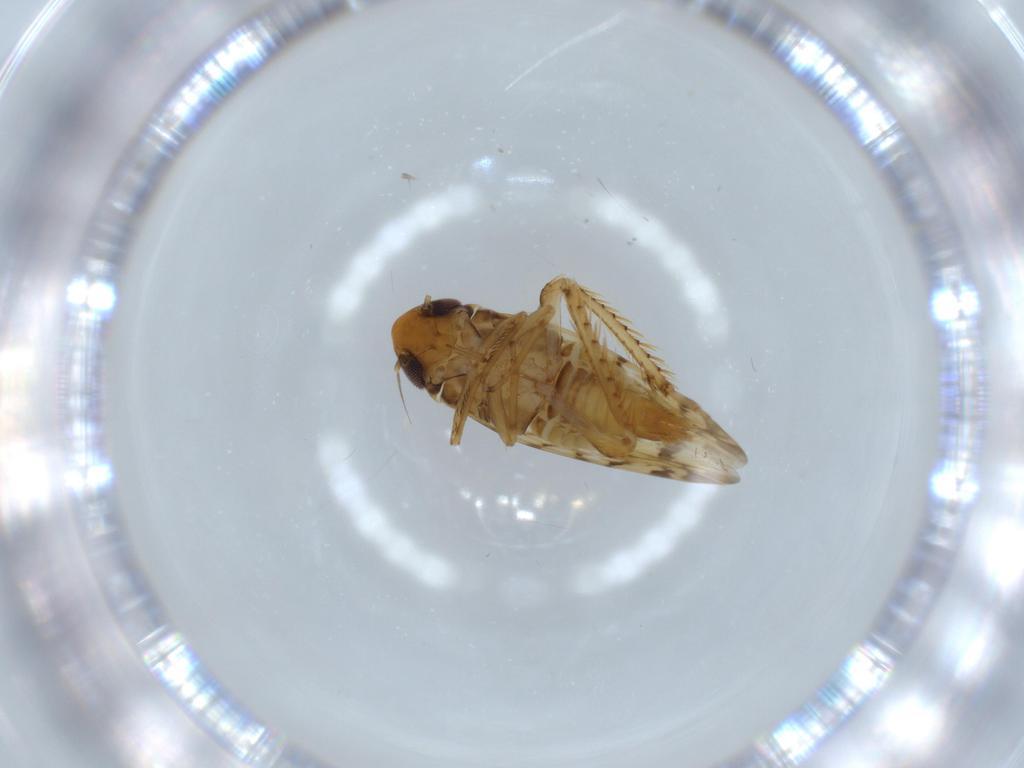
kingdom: Animalia
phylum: Arthropoda
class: Insecta
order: Hemiptera
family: Cicadellidae
